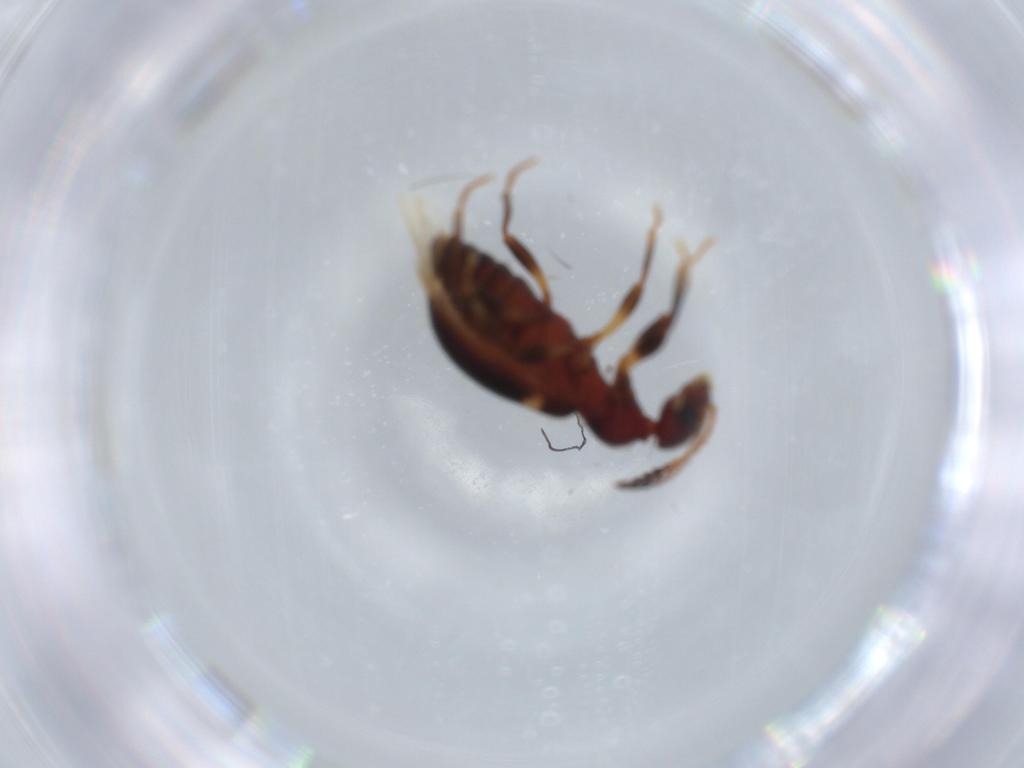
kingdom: Animalia
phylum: Arthropoda
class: Insecta
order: Coleoptera
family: Anthicidae
